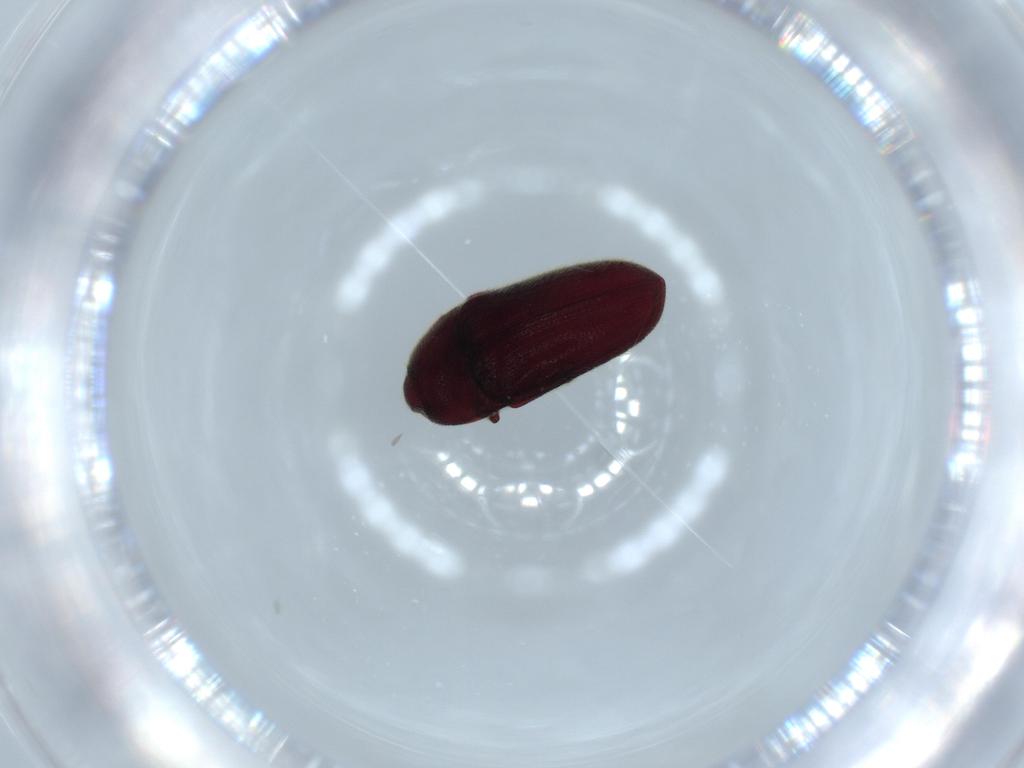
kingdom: Animalia
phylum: Arthropoda
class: Insecta
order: Coleoptera
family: Throscidae
